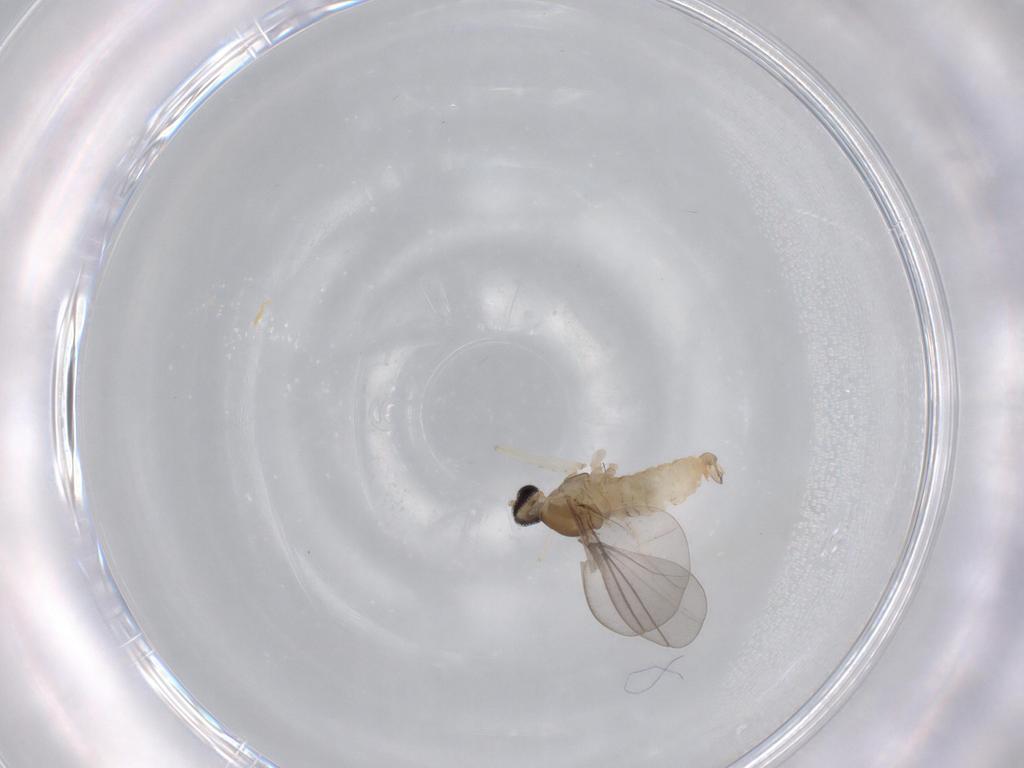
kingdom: Animalia
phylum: Arthropoda
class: Insecta
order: Diptera
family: Cecidomyiidae
